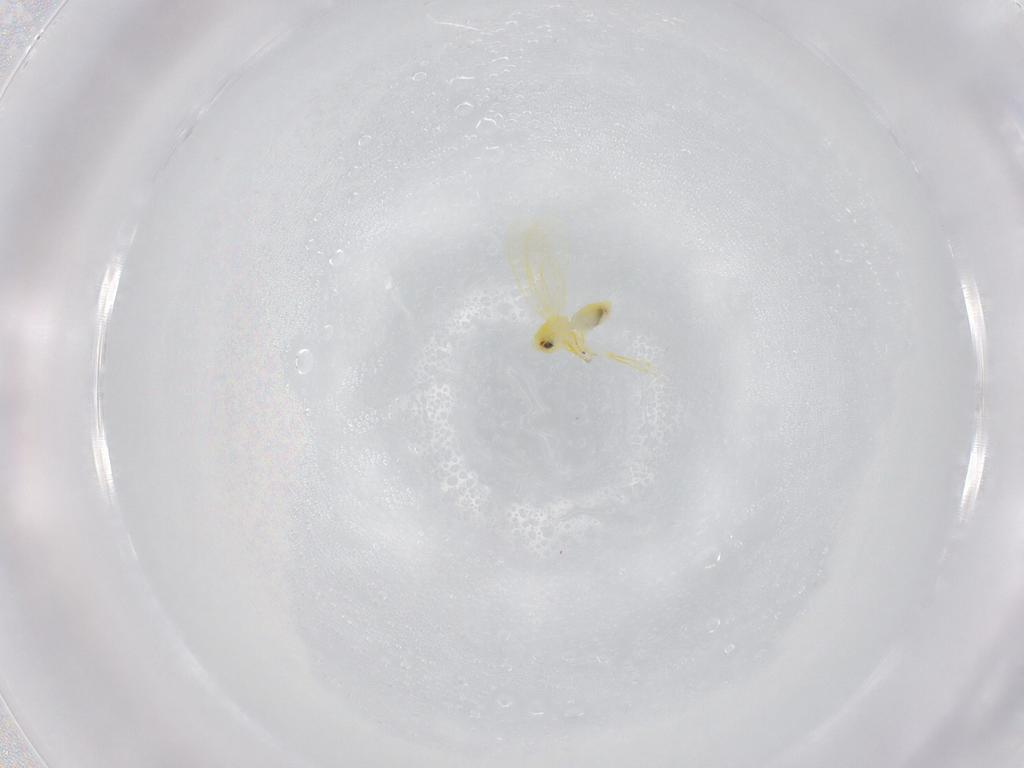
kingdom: Animalia
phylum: Arthropoda
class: Insecta
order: Hemiptera
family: Aleyrodidae
